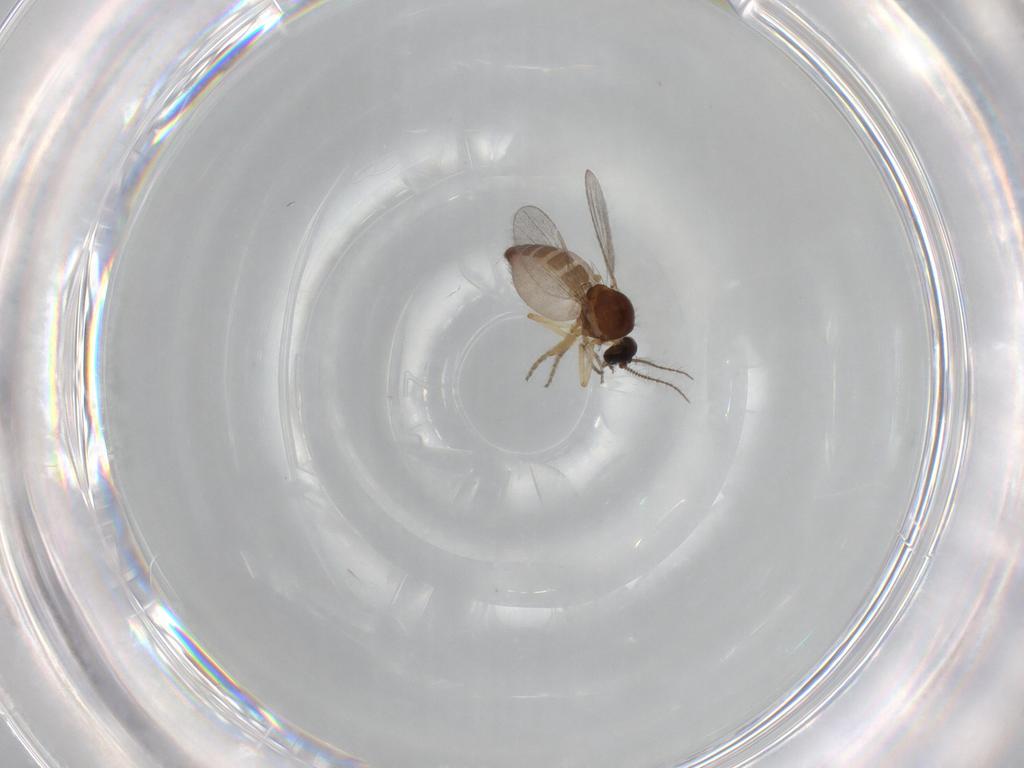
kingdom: Animalia
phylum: Arthropoda
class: Insecta
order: Diptera
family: Ceratopogonidae
